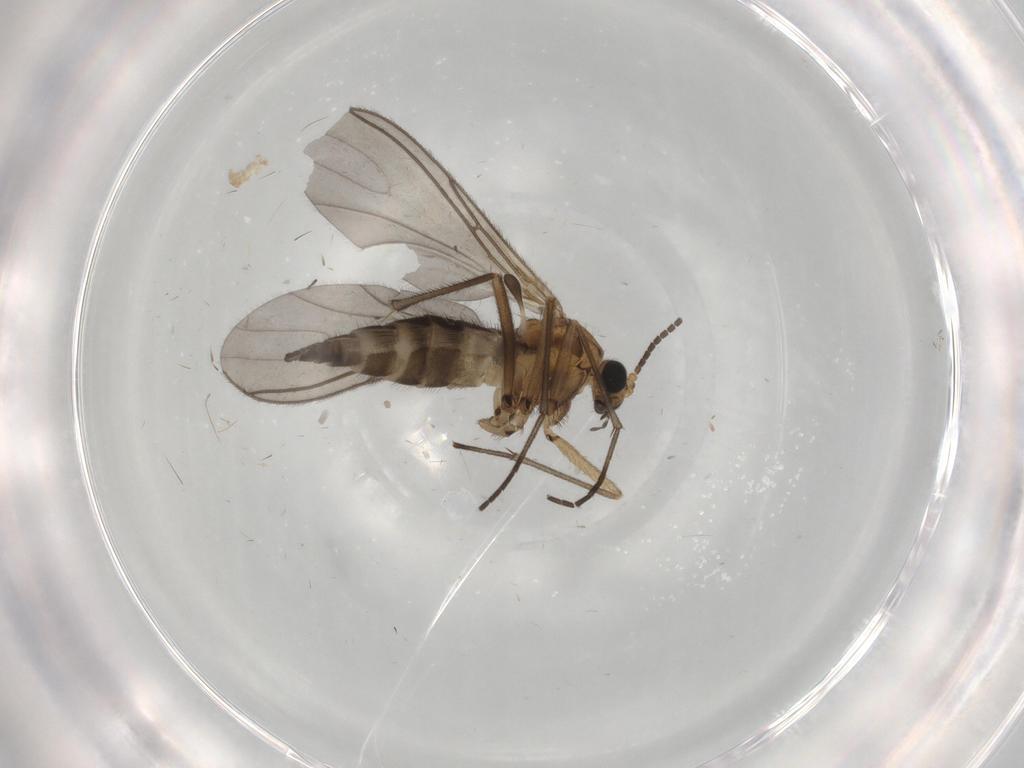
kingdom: Animalia
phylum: Arthropoda
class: Insecta
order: Diptera
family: Sciaridae
